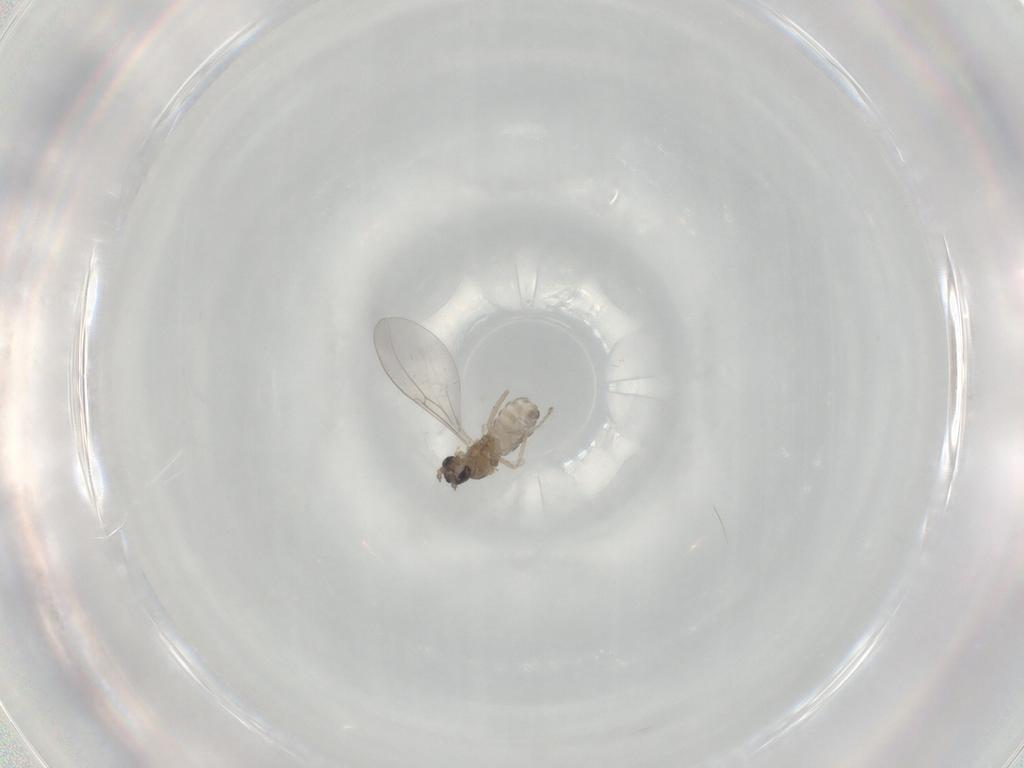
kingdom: Animalia
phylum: Arthropoda
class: Insecta
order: Diptera
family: Cecidomyiidae
